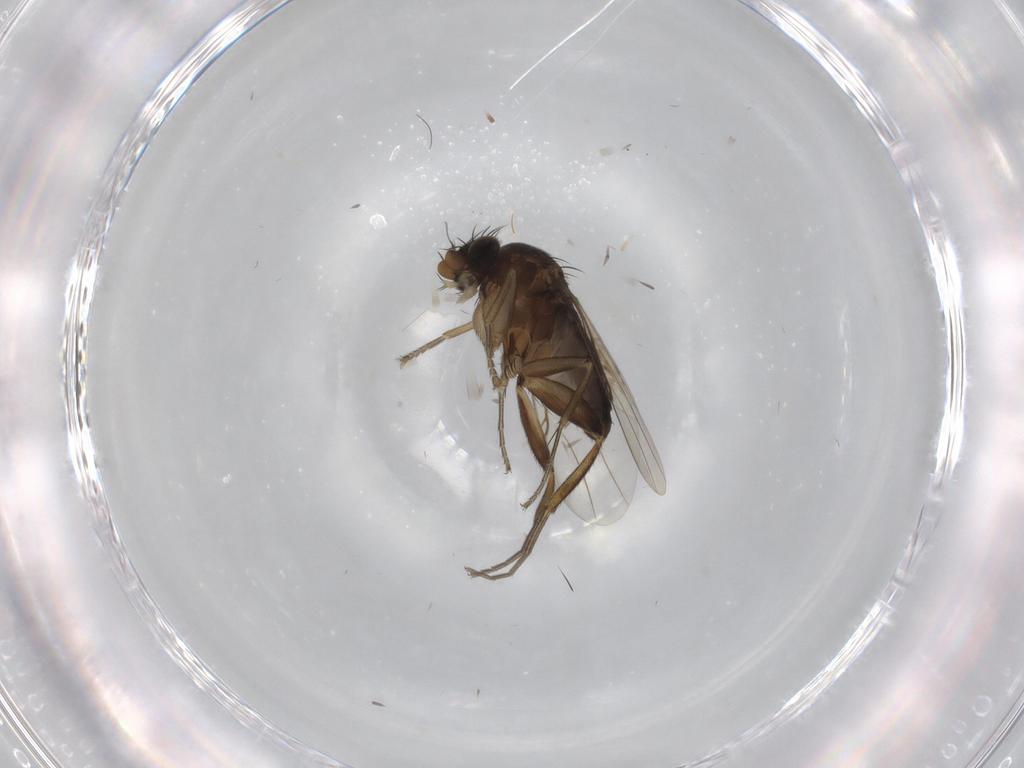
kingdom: Animalia
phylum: Arthropoda
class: Insecta
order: Diptera
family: Phoridae
